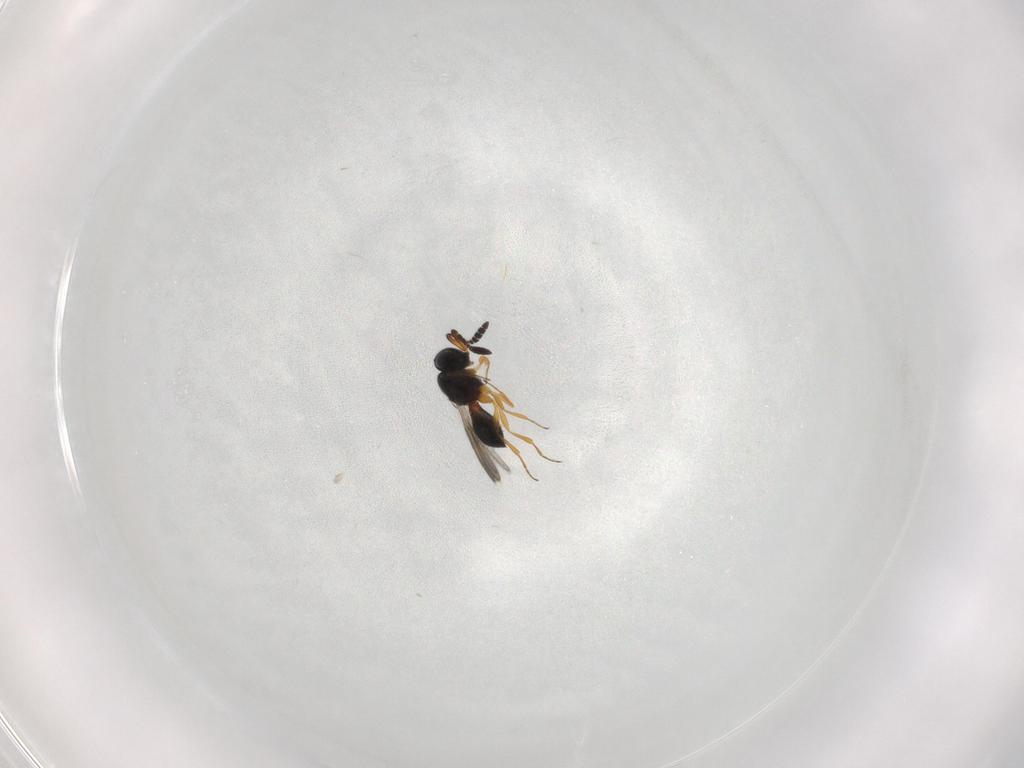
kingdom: Animalia
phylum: Arthropoda
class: Insecta
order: Hymenoptera
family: Scelionidae
